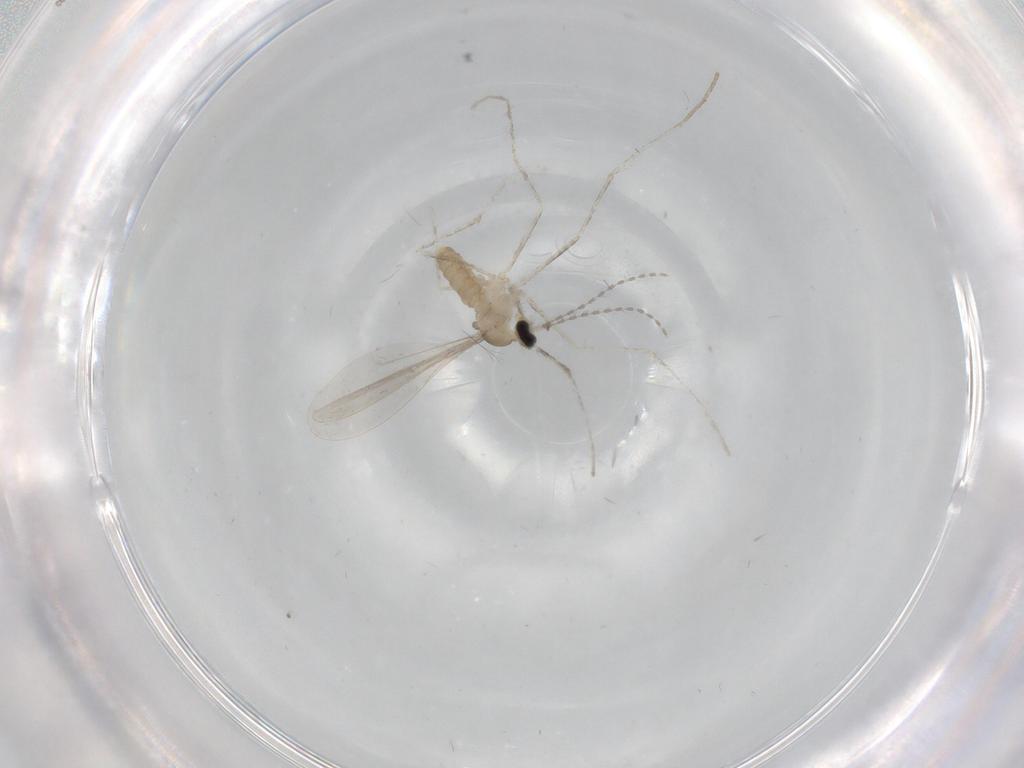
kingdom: Animalia
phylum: Arthropoda
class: Insecta
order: Diptera
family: Cecidomyiidae
